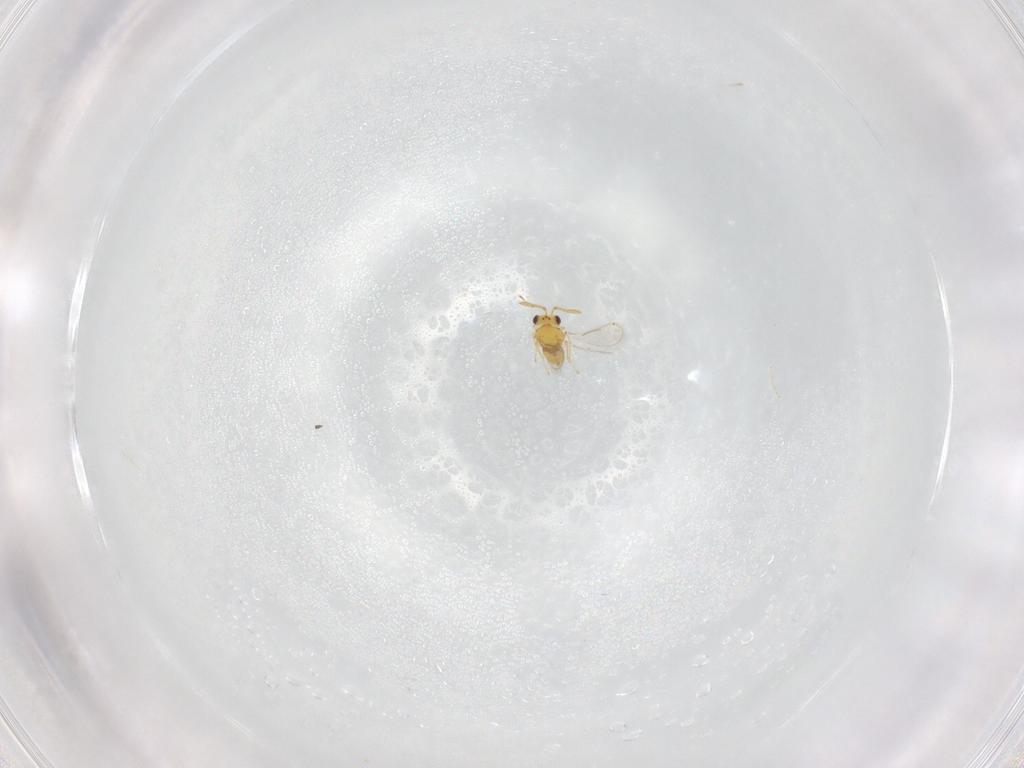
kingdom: Animalia
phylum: Arthropoda
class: Insecta
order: Hymenoptera
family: Aphelinidae
